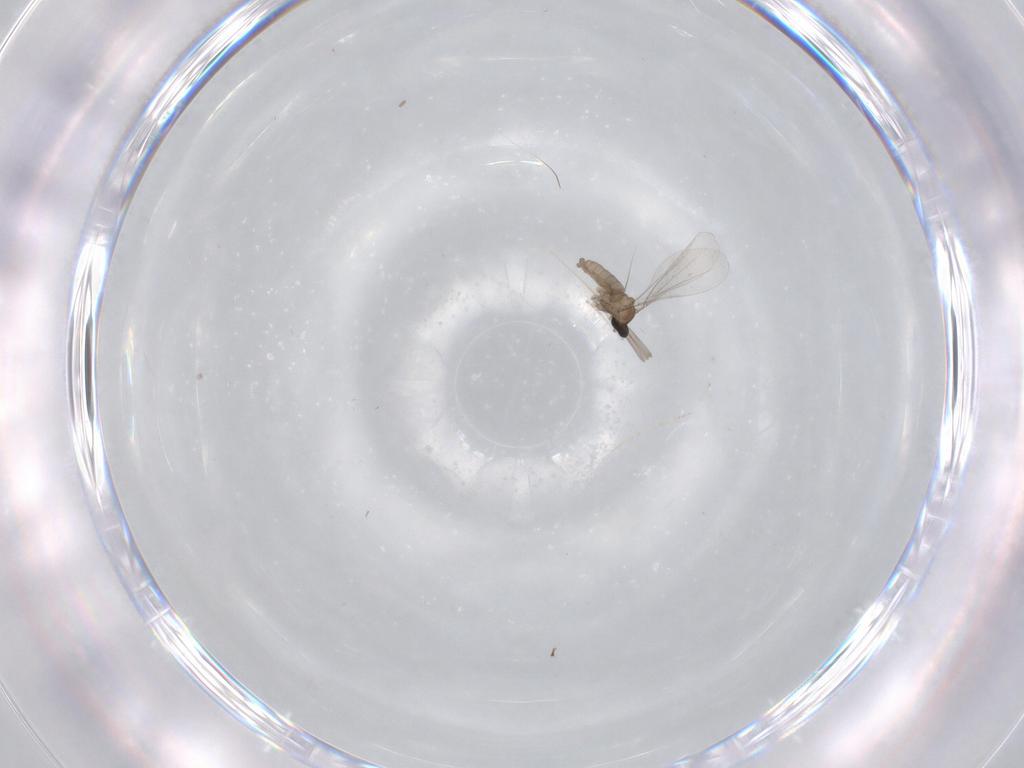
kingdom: Animalia
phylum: Arthropoda
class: Insecta
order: Diptera
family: Cecidomyiidae
